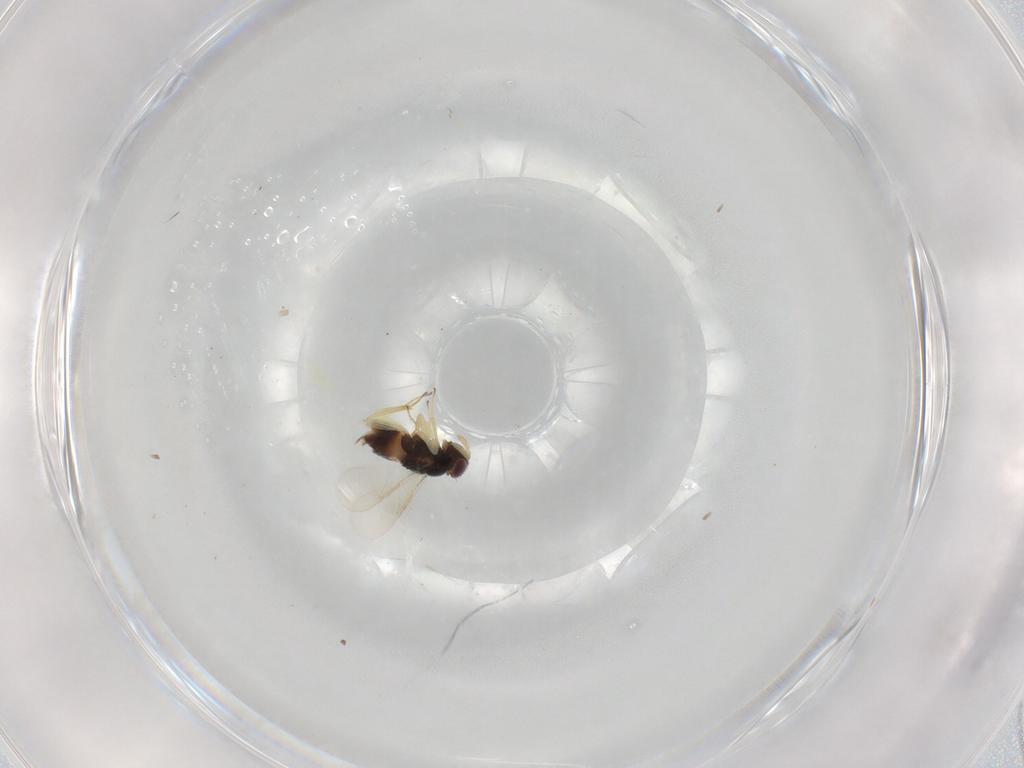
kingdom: Animalia
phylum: Arthropoda
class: Insecta
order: Hymenoptera
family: Aphelinidae
